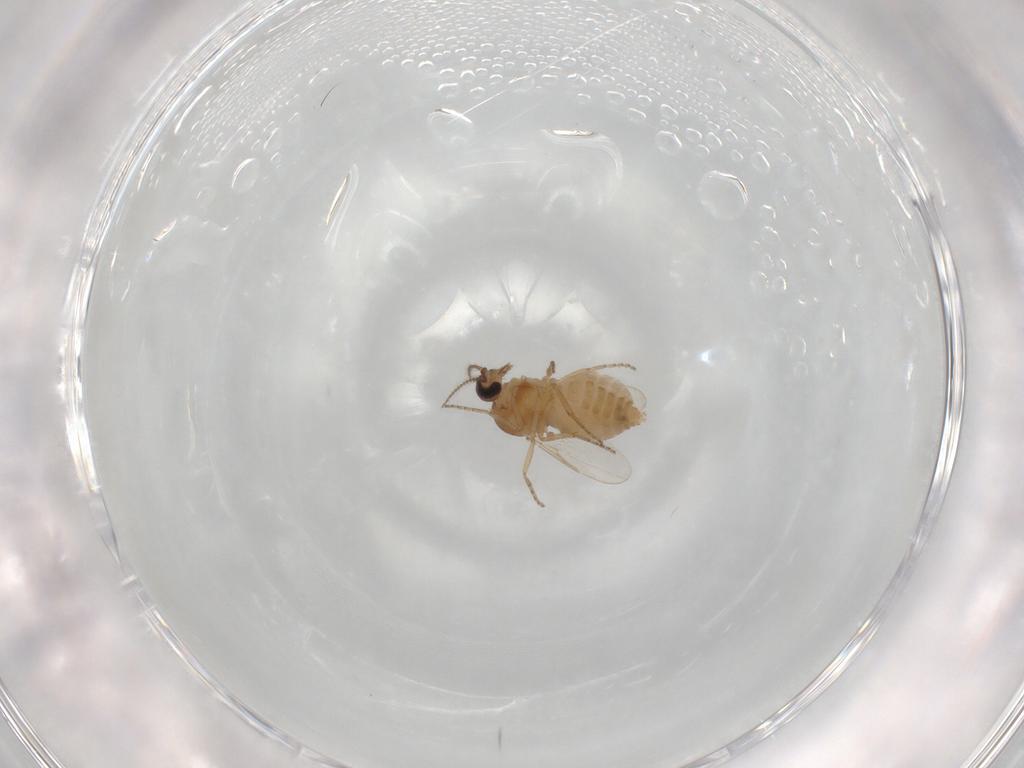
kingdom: Animalia
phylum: Arthropoda
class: Insecta
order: Diptera
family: Ceratopogonidae
